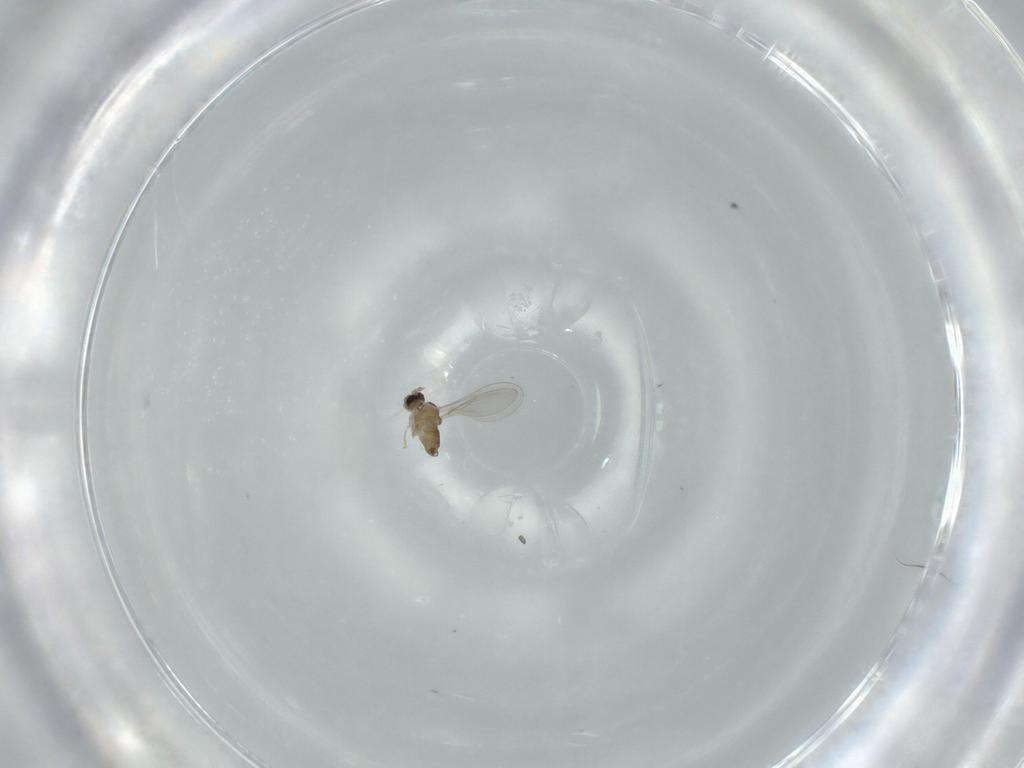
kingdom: Animalia
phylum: Arthropoda
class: Insecta
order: Diptera
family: Cecidomyiidae
